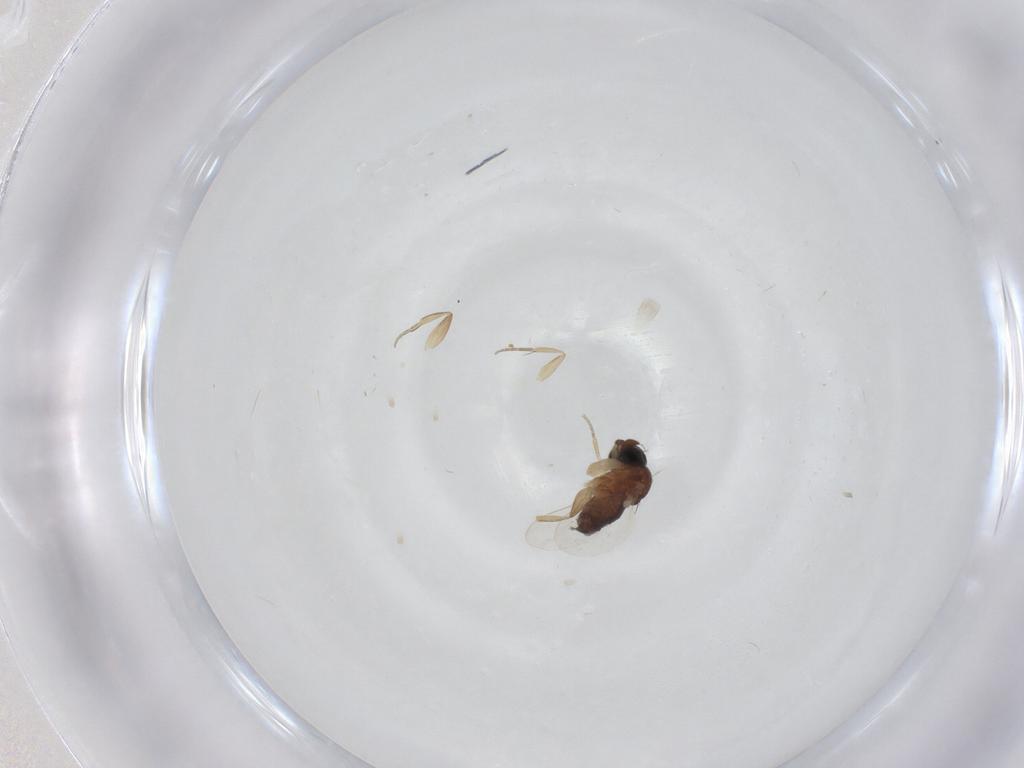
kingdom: Animalia
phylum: Arthropoda
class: Insecta
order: Diptera
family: Phoridae
